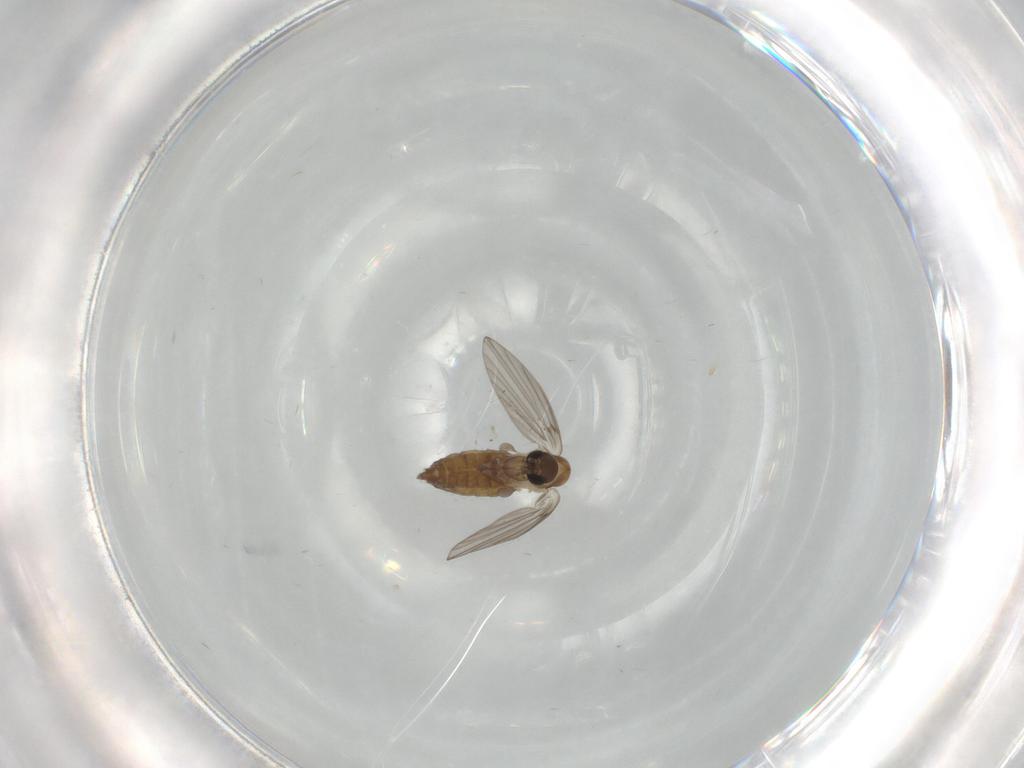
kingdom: Animalia
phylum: Arthropoda
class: Insecta
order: Diptera
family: Psychodidae
